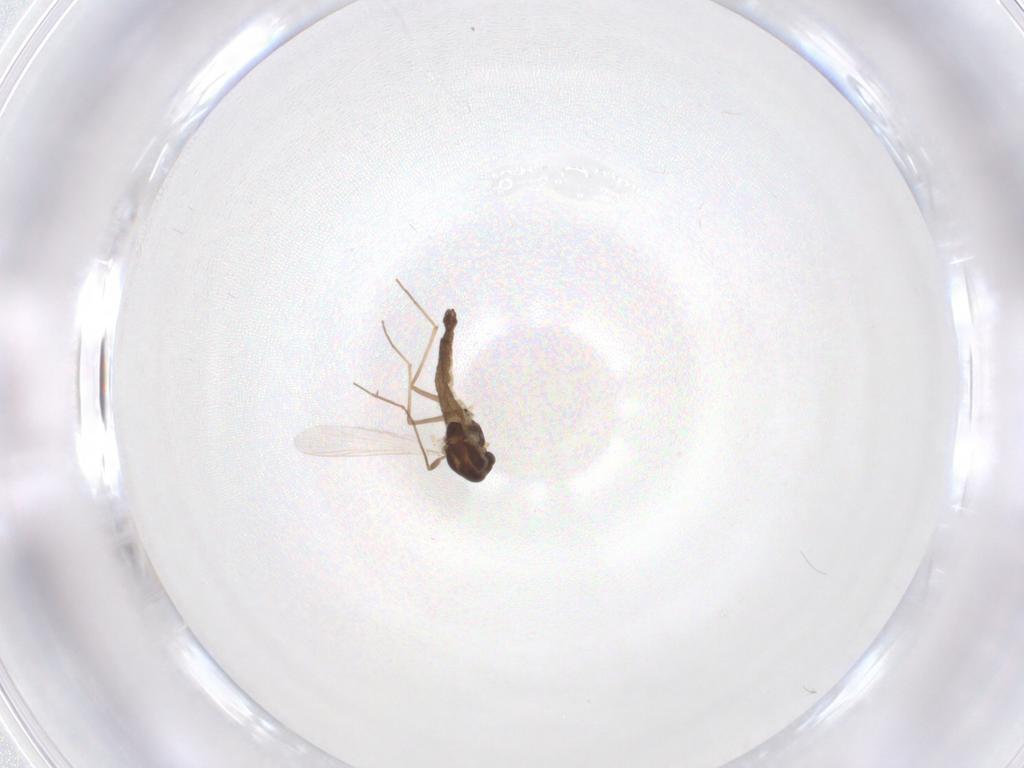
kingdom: Animalia
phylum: Arthropoda
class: Insecta
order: Diptera
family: Chironomidae
